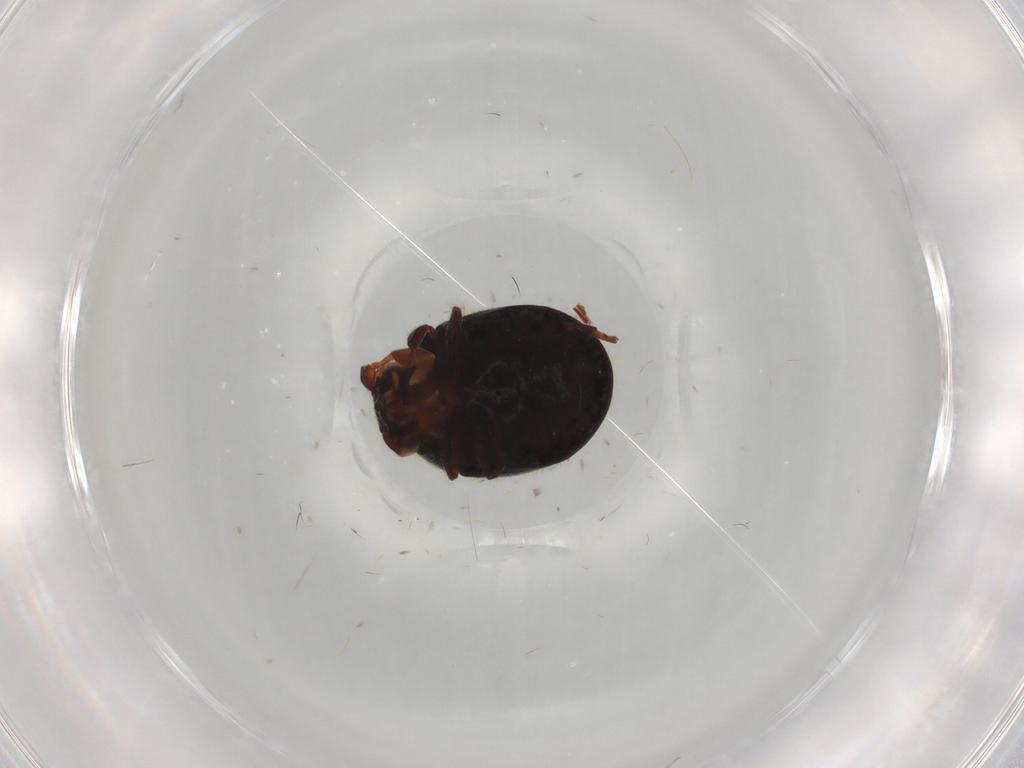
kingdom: Animalia
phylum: Arthropoda
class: Insecta
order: Coleoptera
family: Ptinidae
